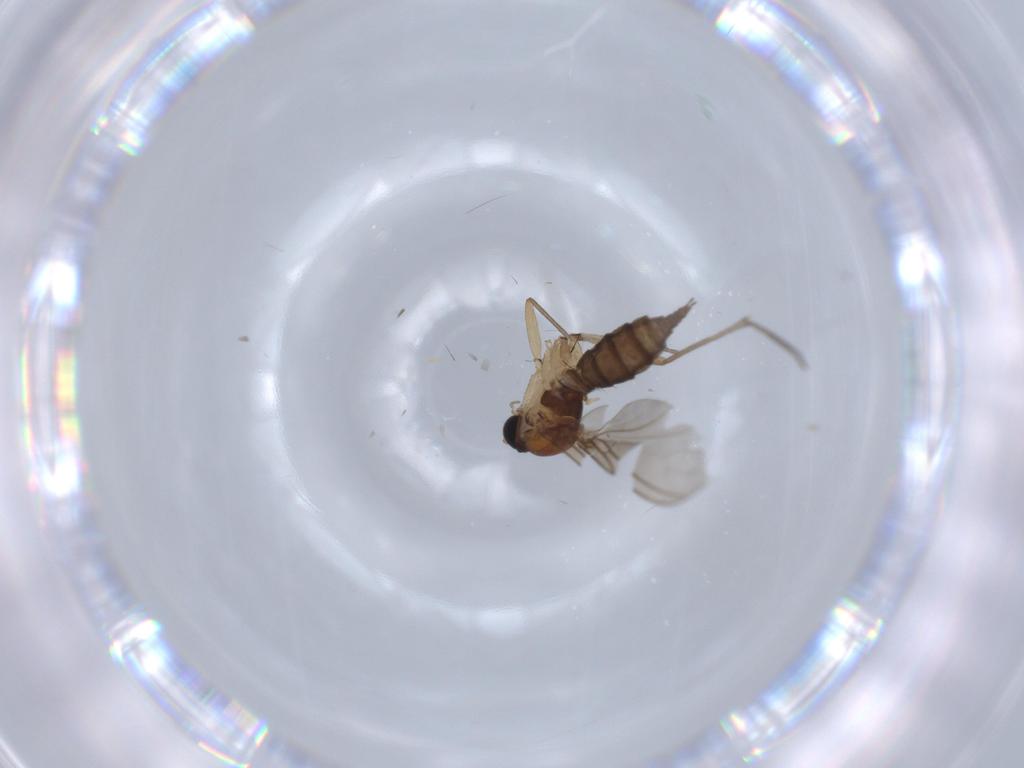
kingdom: Animalia
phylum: Arthropoda
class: Insecta
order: Diptera
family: Sciaridae
